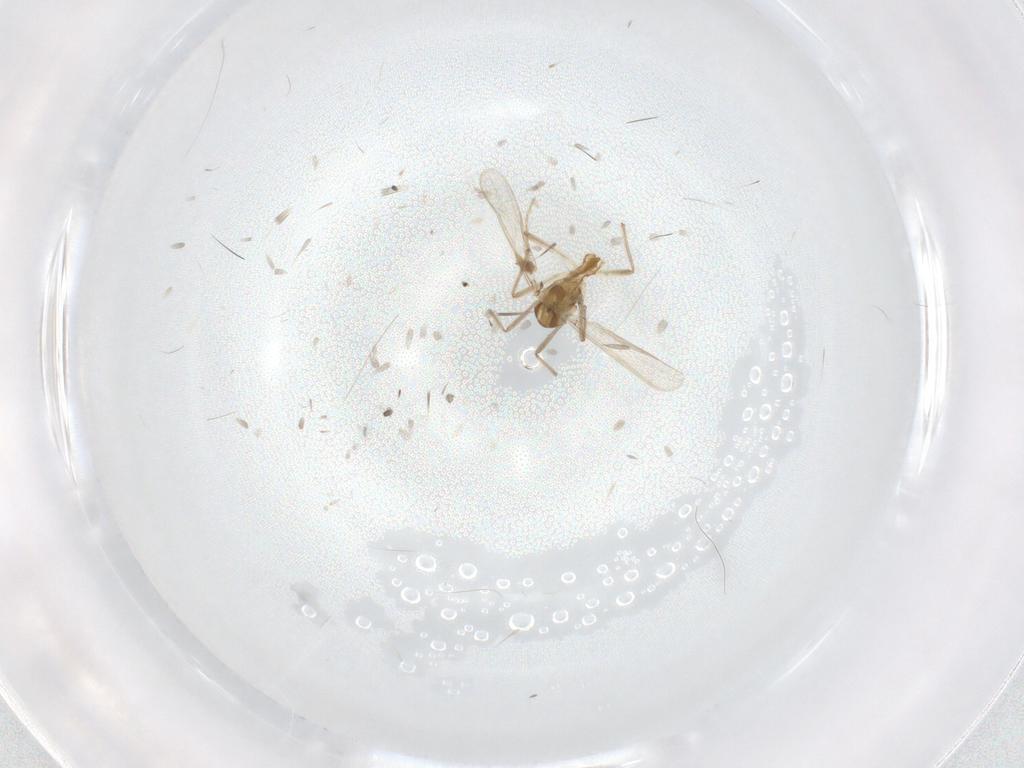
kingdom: Animalia
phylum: Arthropoda
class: Insecta
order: Diptera
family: Chironomidae
